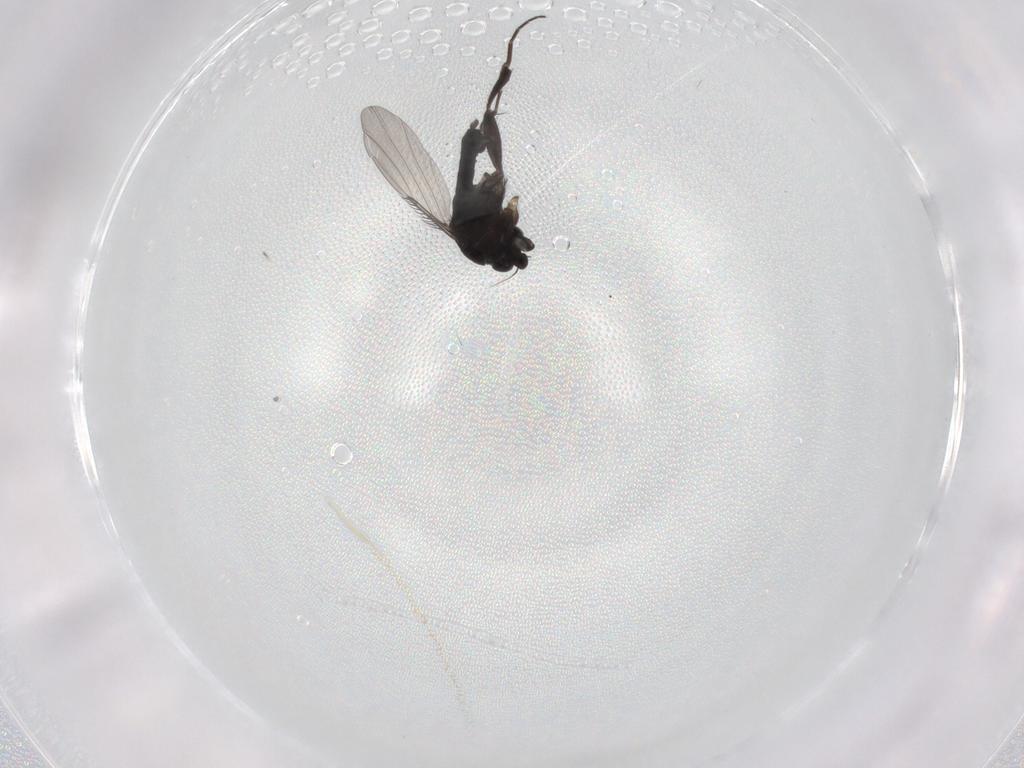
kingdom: Animalia
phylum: Arthropoda
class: Insecta
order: Diptera
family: Phoridae
